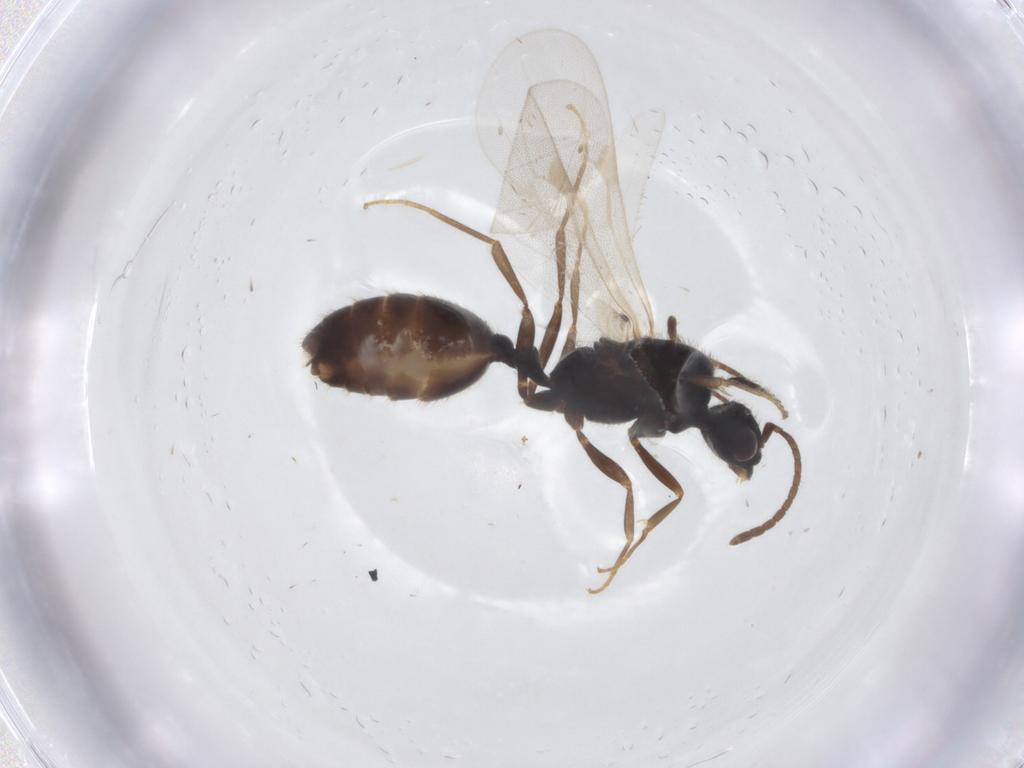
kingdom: Animalia
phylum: Arthropoda
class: Insecta
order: Hymenoptera
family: Formicidae
